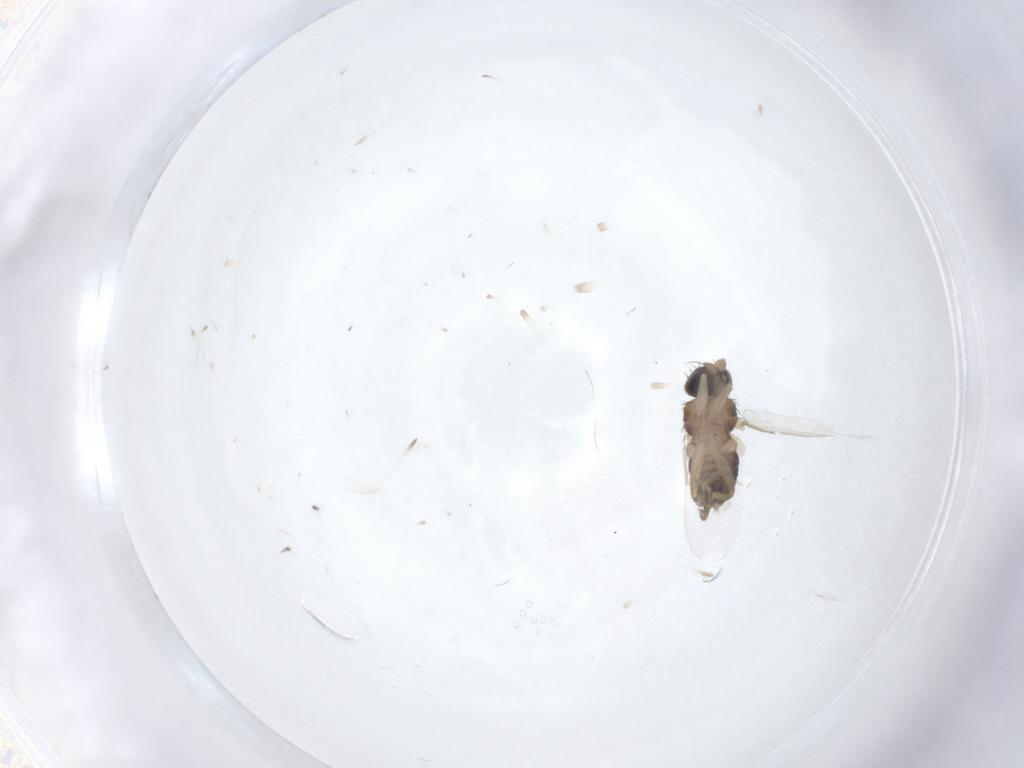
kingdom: Animalia
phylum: Arthropoda
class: Insecta
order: Diptera
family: Phoridae
